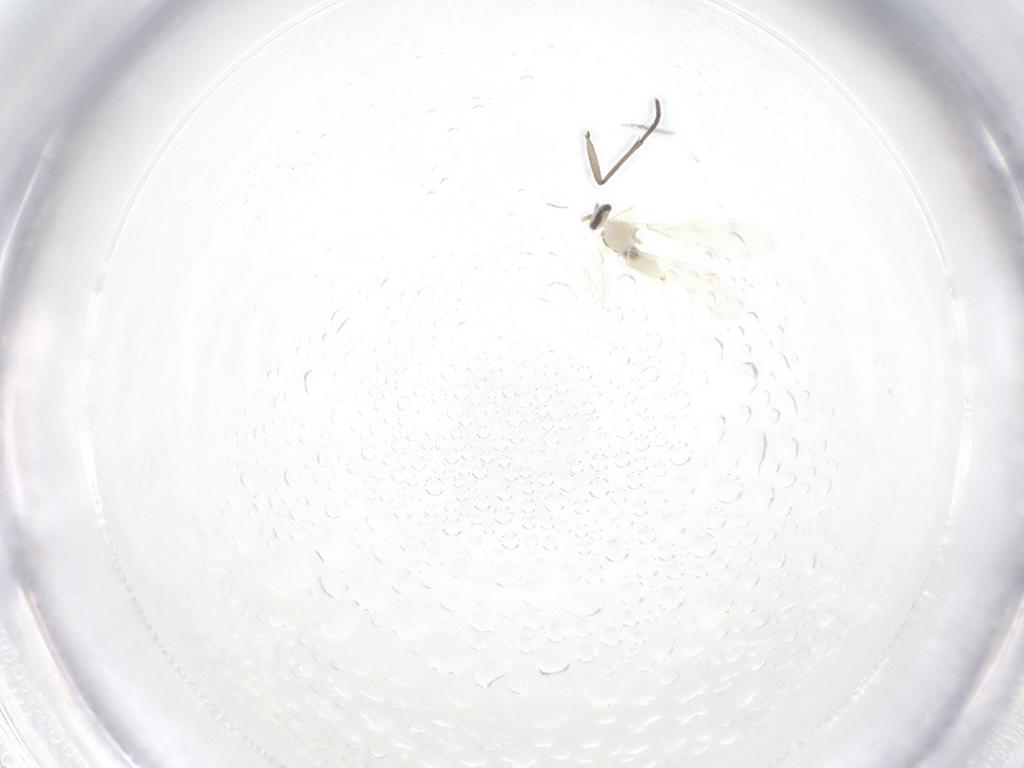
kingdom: Animalia
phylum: Arthropoda
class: Insecta
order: Diptera
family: Cecidomyiidae
